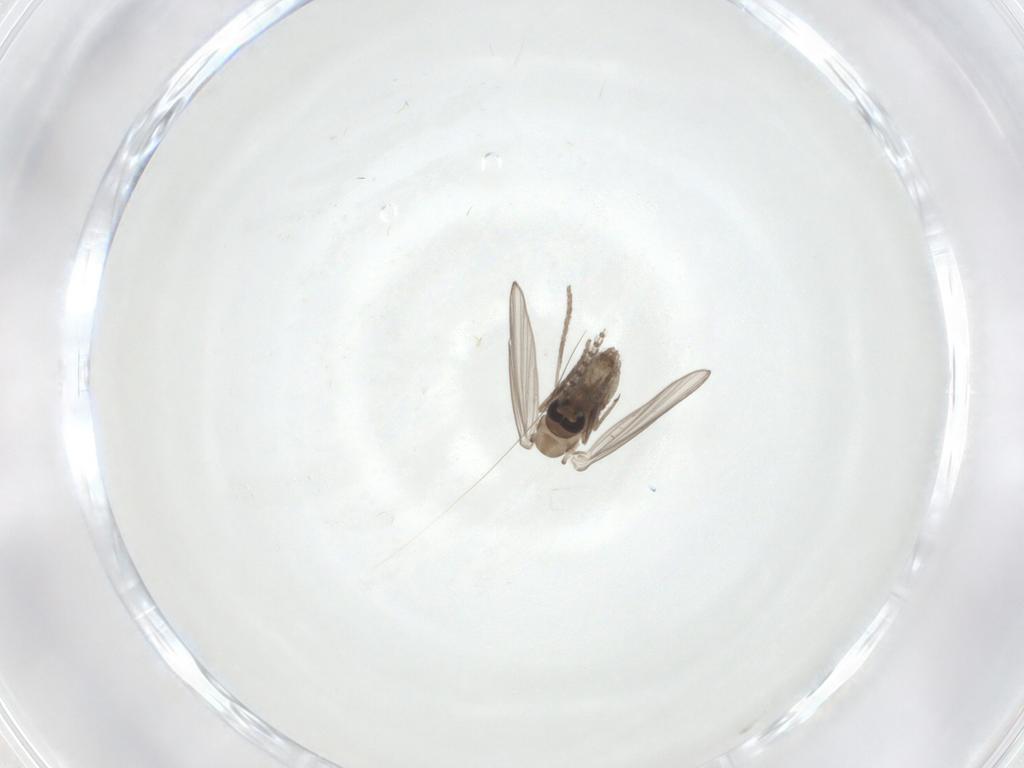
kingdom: Animalia
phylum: Arthropoda
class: Insecta
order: Diptera
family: Psychodidae
